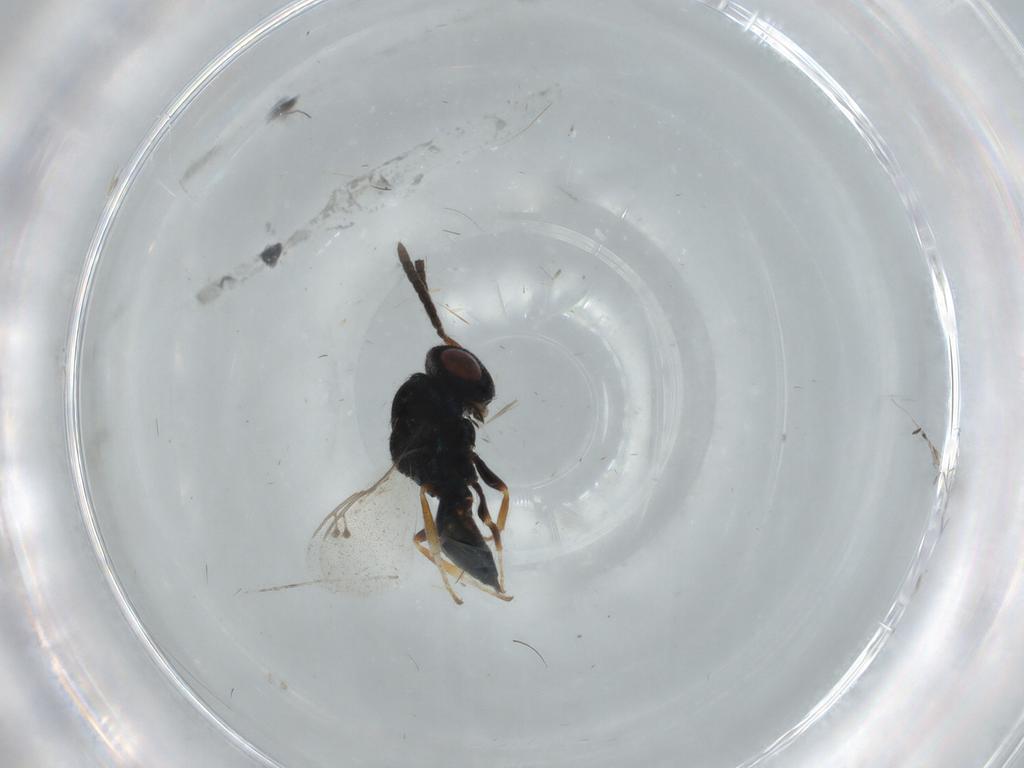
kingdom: Animalia
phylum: Arthropoda
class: Insecta
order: Hymenoptera
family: Pteromalidae
